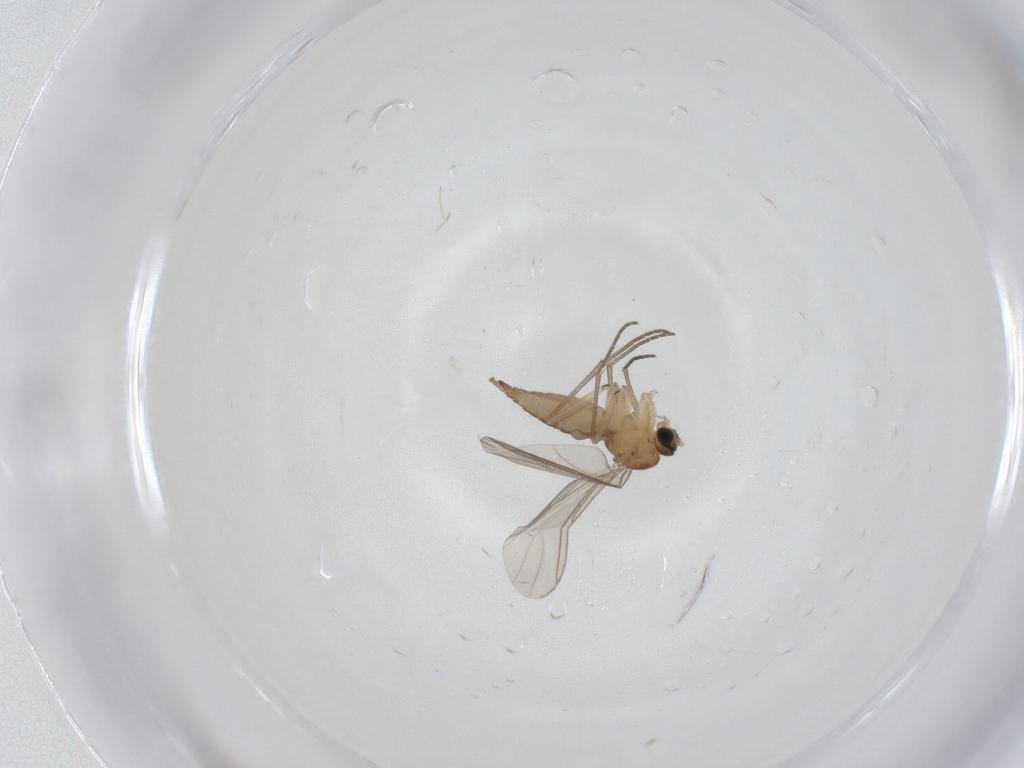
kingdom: Animalia
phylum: Arthropoda
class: Insecta
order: Diptera
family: Sciaridae
